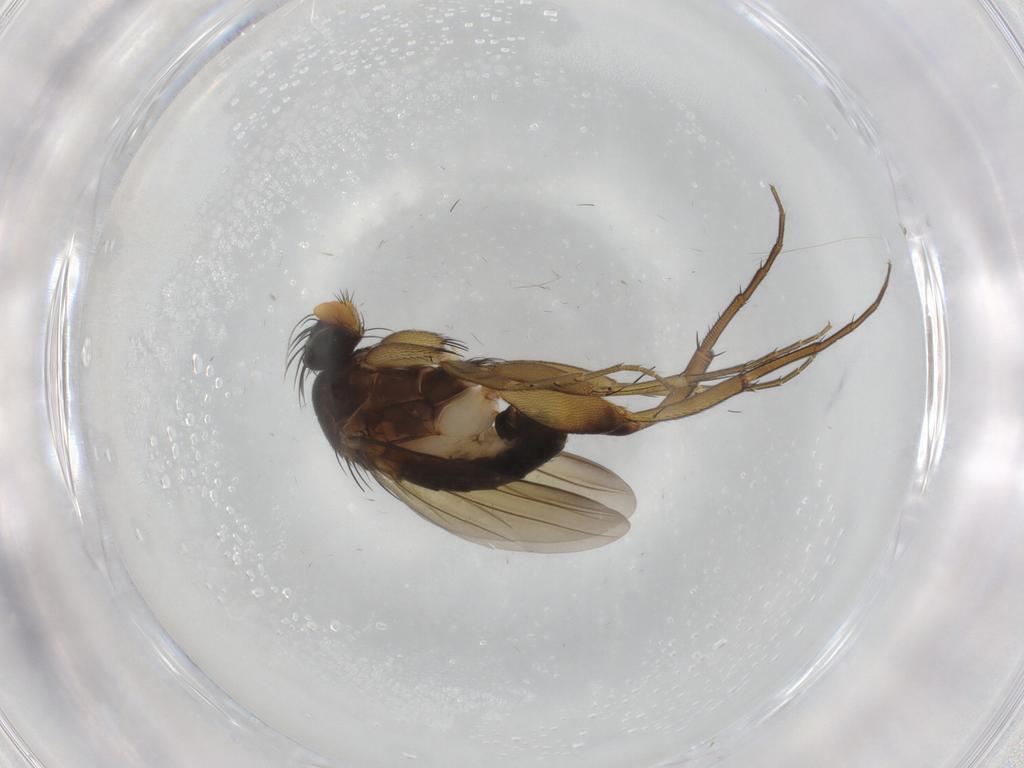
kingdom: Animalia
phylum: Arthropoda
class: Insecta
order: Diptera
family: Phoridae
